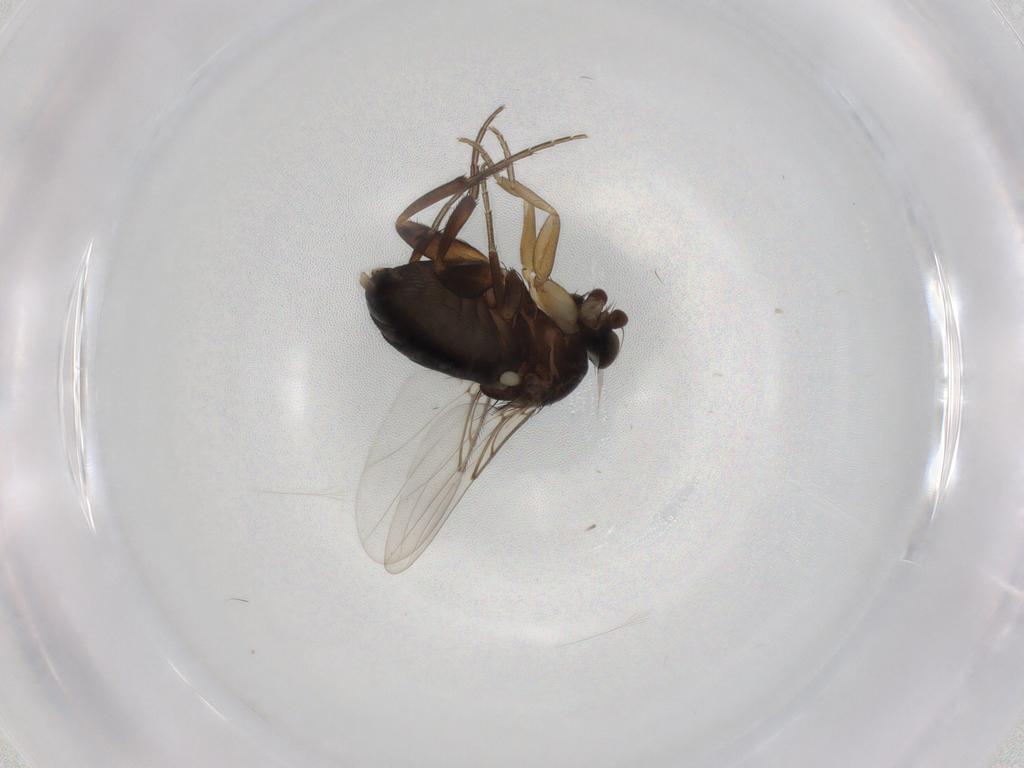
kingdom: Animalia
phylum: Arthropoda
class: Insecta
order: Diptera
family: Phoridae
